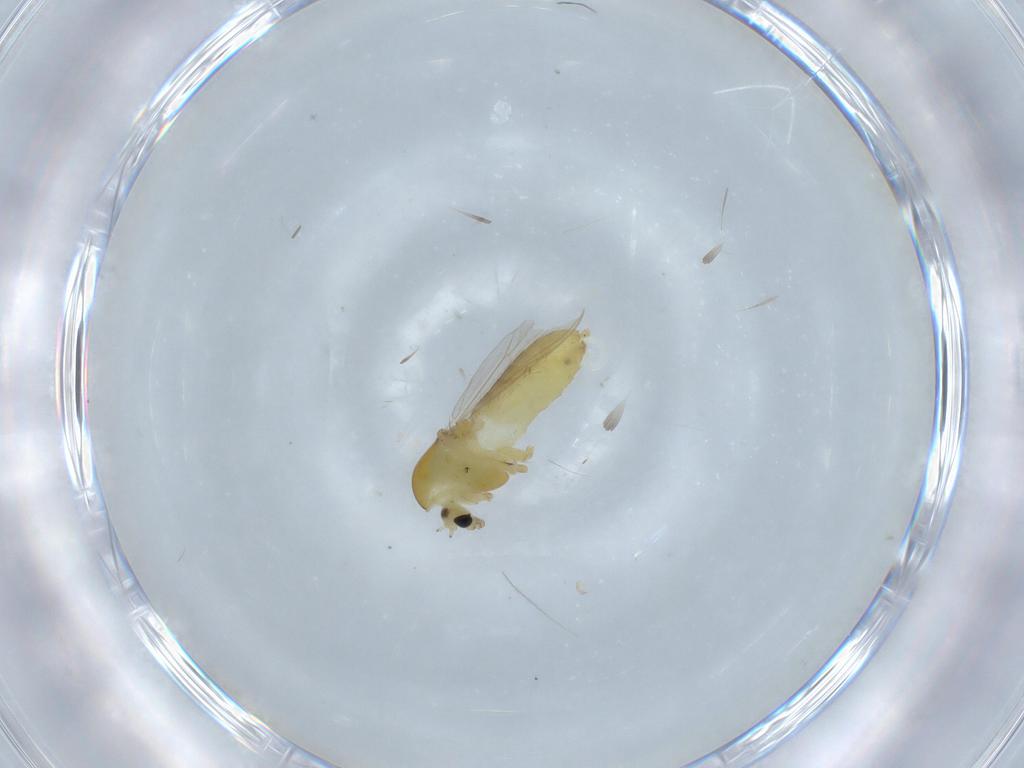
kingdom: Animalia
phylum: Arthropoda
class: Insecta
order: Diptera
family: Chironomidae
